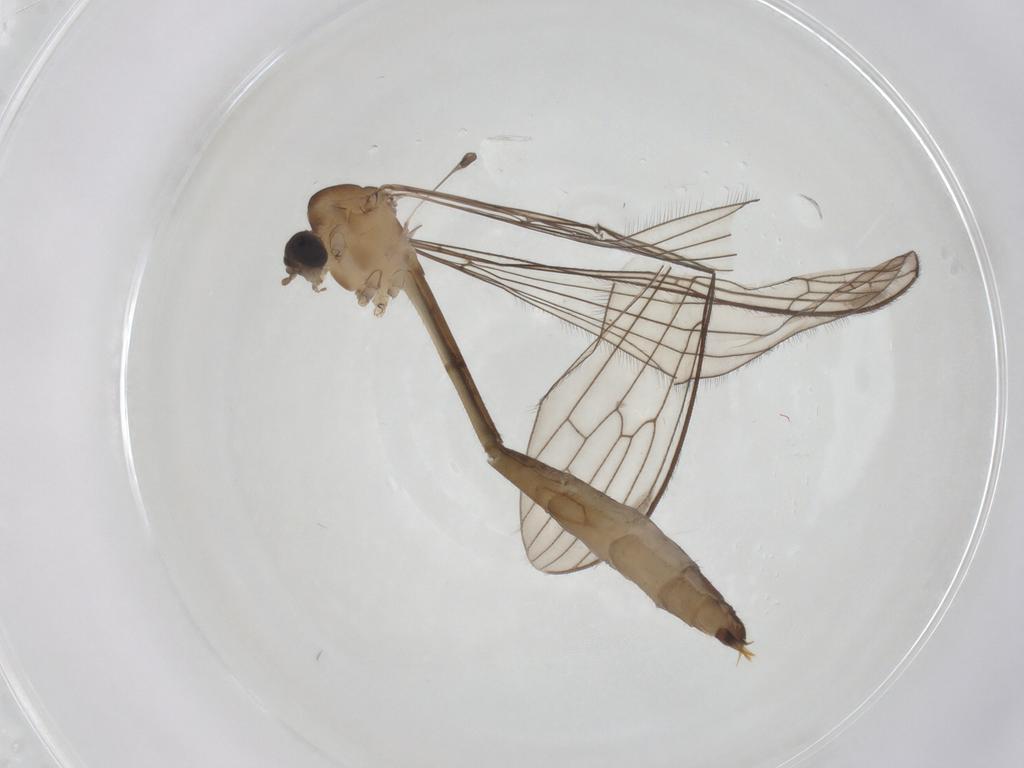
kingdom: Animalia
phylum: Arthropoda
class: Insecta
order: Diptera
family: Limoniidae
